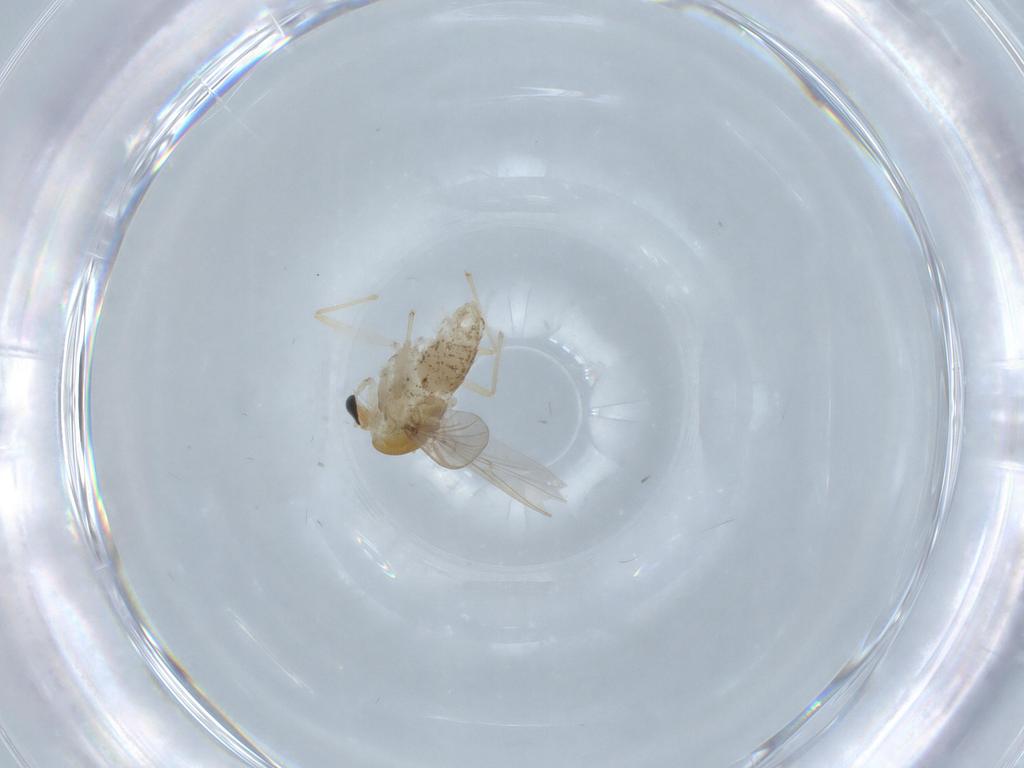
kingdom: Animalia
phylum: Arthropoda
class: Insecta
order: Diptera
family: Chironomidae
